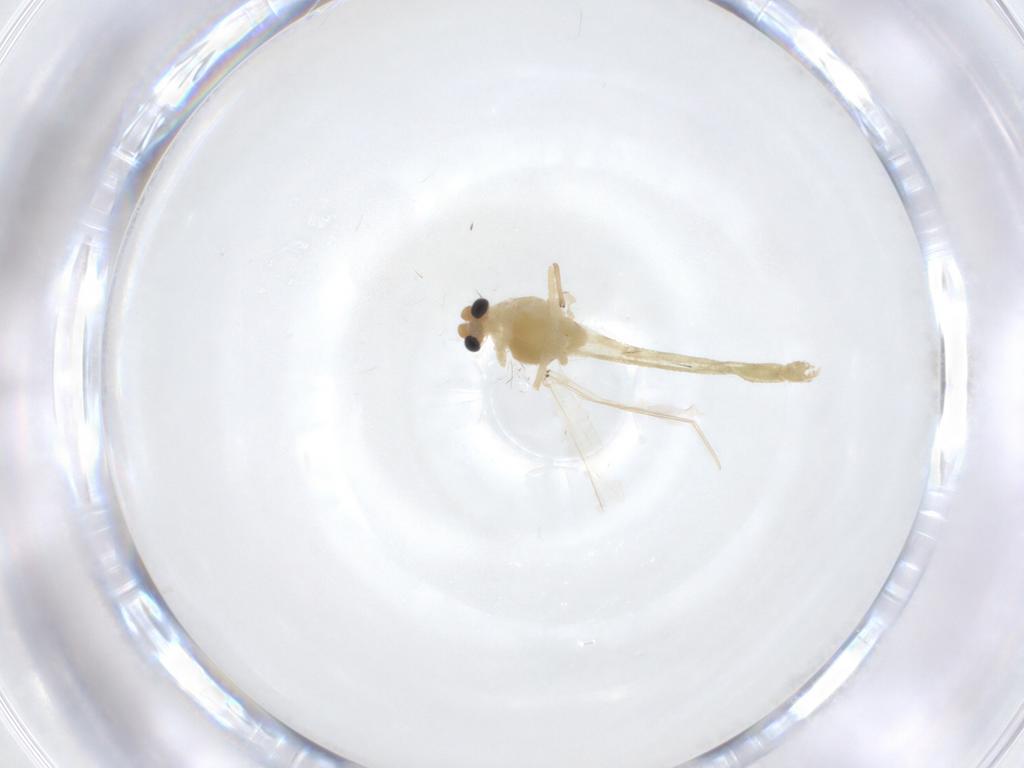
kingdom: Animalia
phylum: Arthropoda
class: Insecta
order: Diptera
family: Chironomidae
